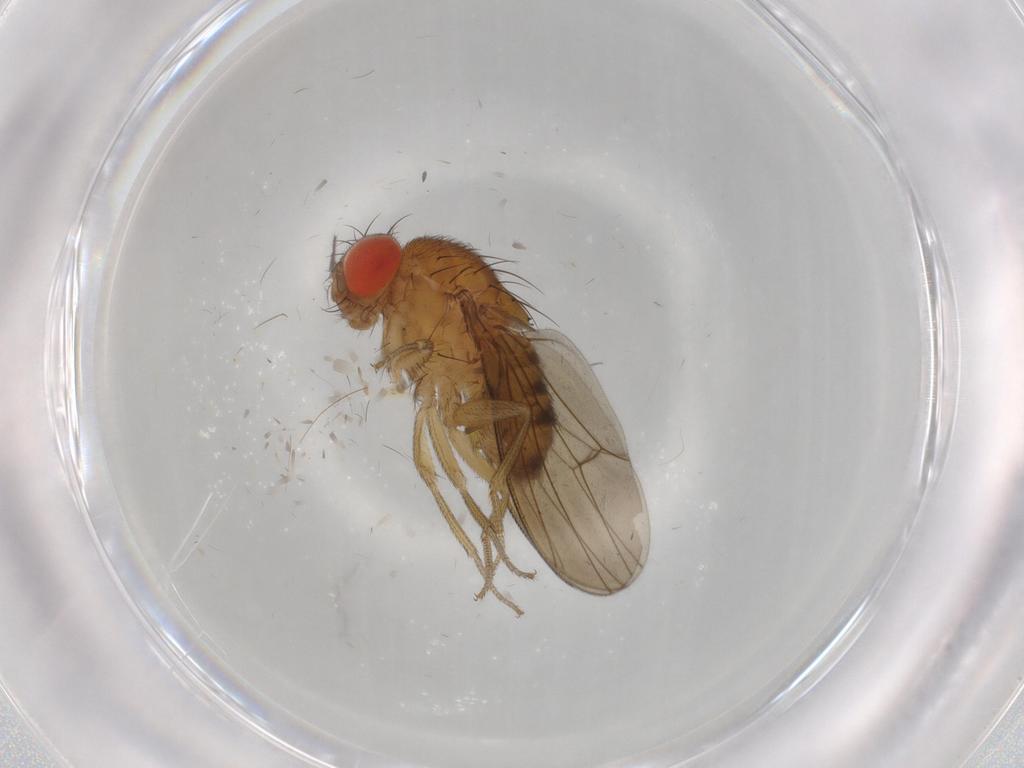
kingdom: Animalia
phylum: Arthropoda
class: Insecta
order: Diptera
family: Drosophilidae
